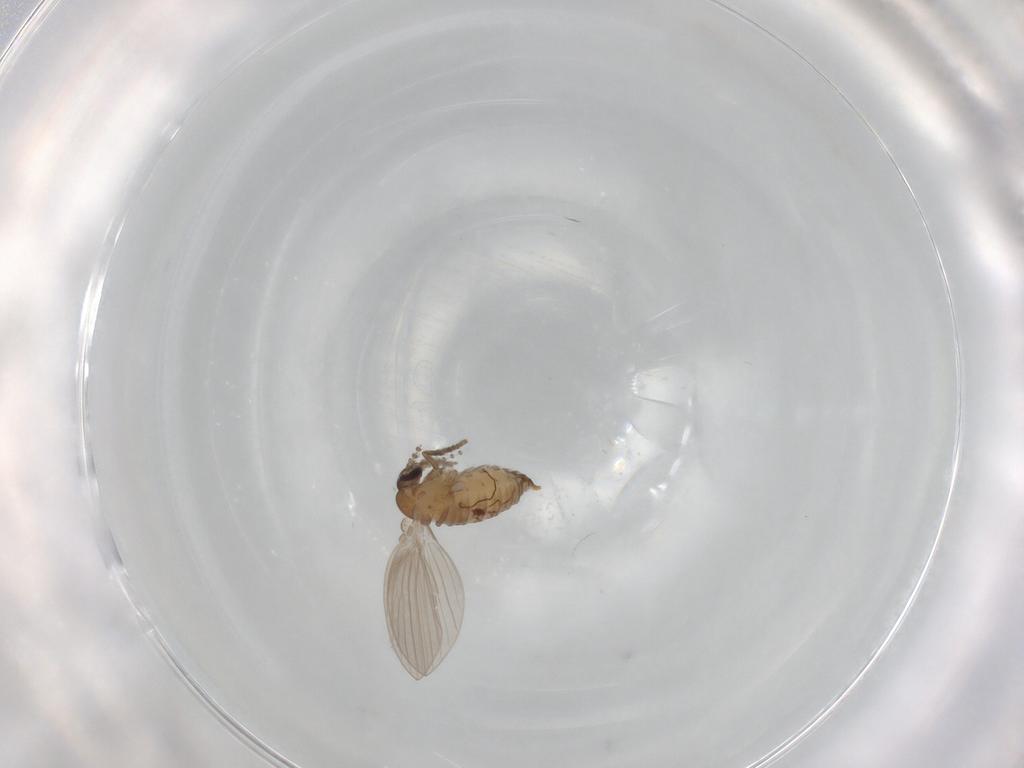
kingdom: Animalia
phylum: Arthropoda
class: Insecta
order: Diptera
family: Psychodidae
